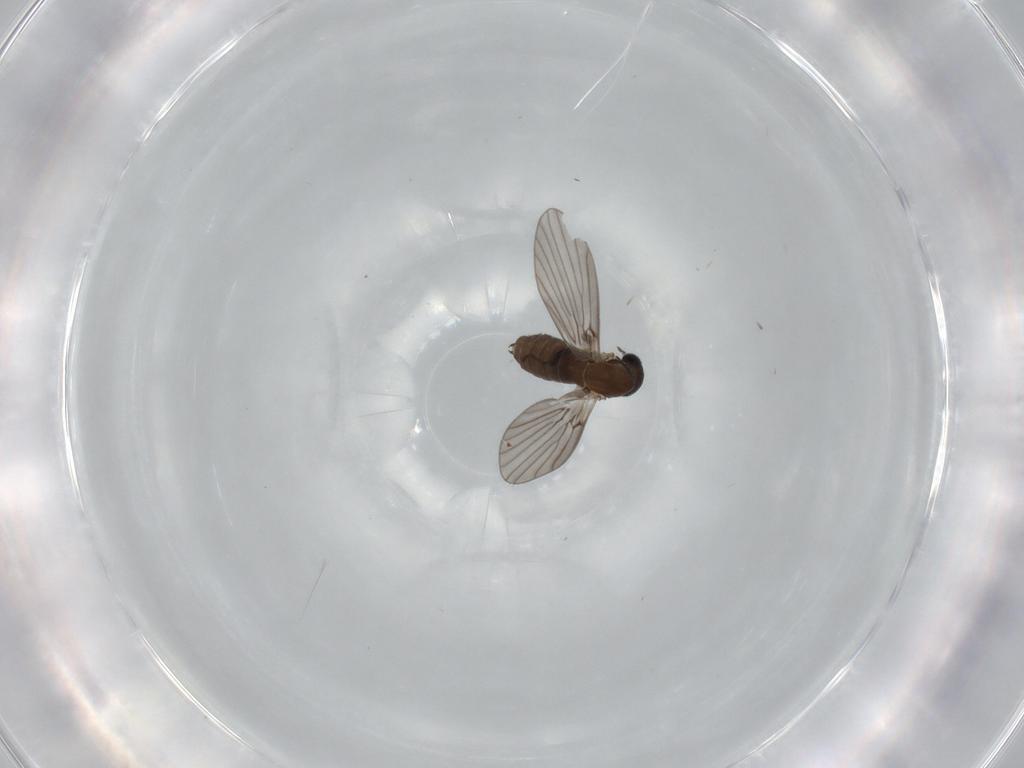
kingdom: Animalia
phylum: Arthropoda
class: Insecta
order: Diptera
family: Psychodidae
